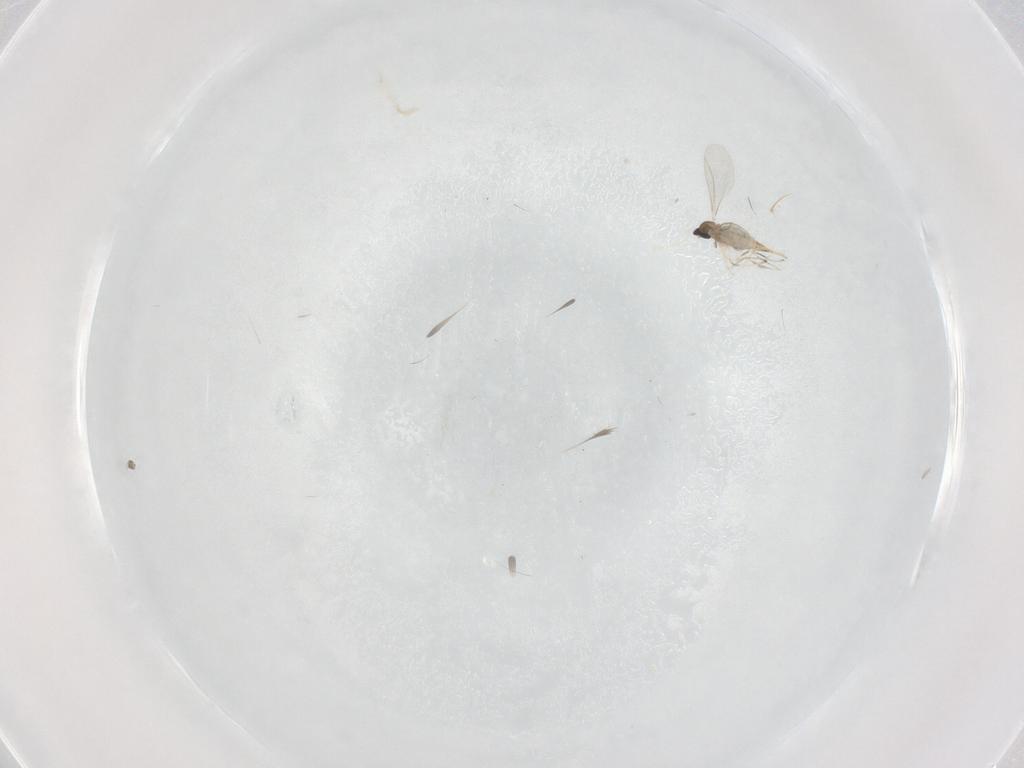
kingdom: Animalia
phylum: Arthropoda
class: Insecta
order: Diptera
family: Cecidomyiidae
